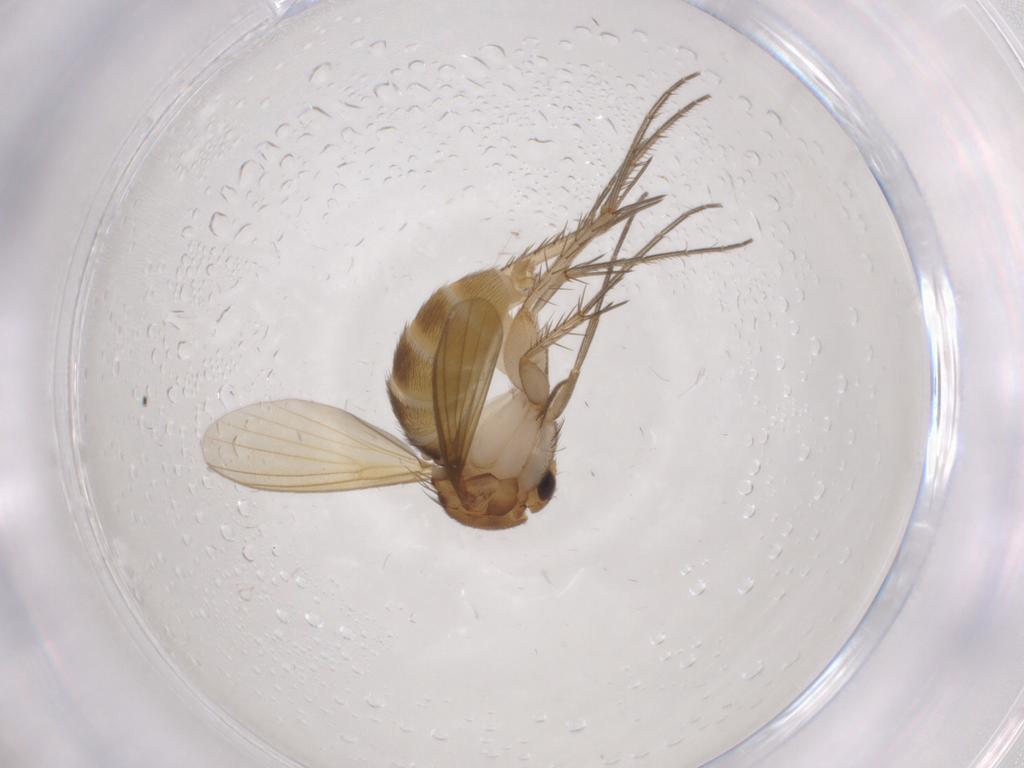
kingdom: Animalia
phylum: Arthropoda
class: Insecta
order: Diptera
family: Mycetophilidae
